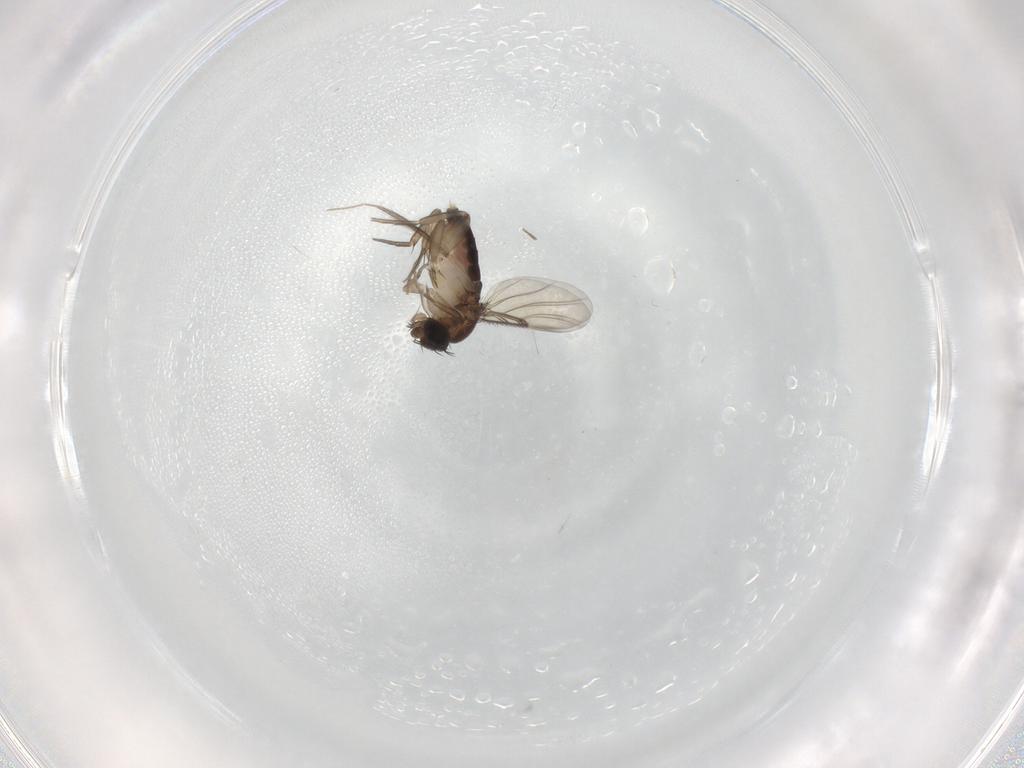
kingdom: Animalia
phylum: Arthropoda
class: Insecta
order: Diptera
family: Phoridae
